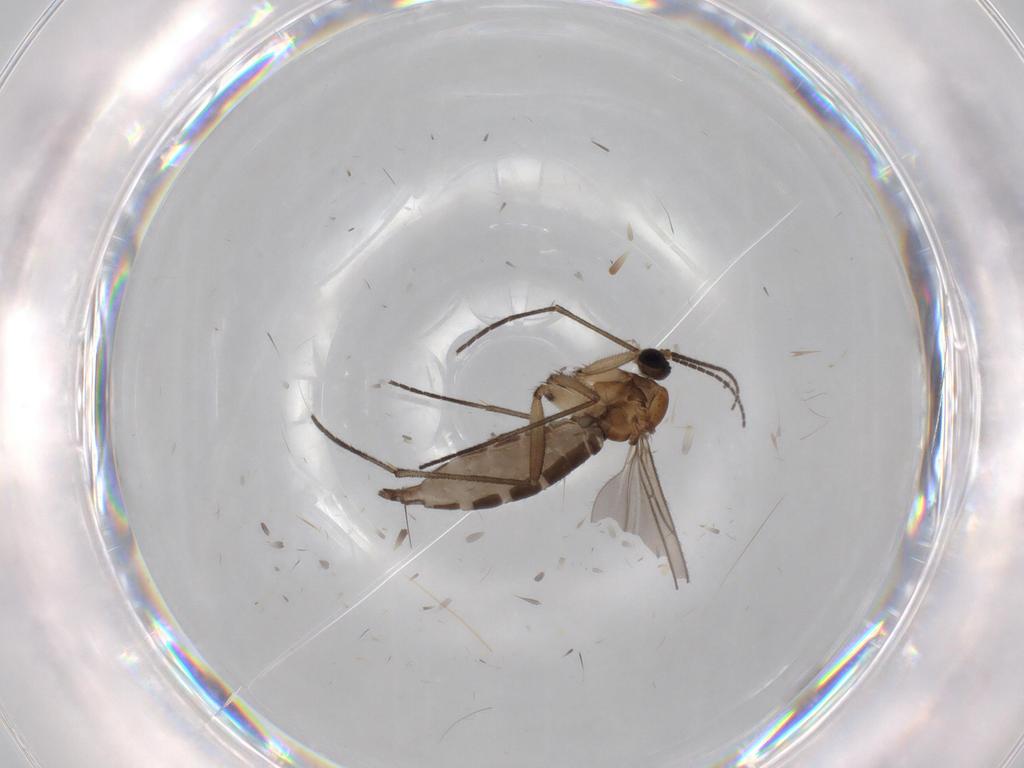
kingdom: Animalia
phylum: Arthropoda
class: Insecta
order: Diptera
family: Sciaridae
